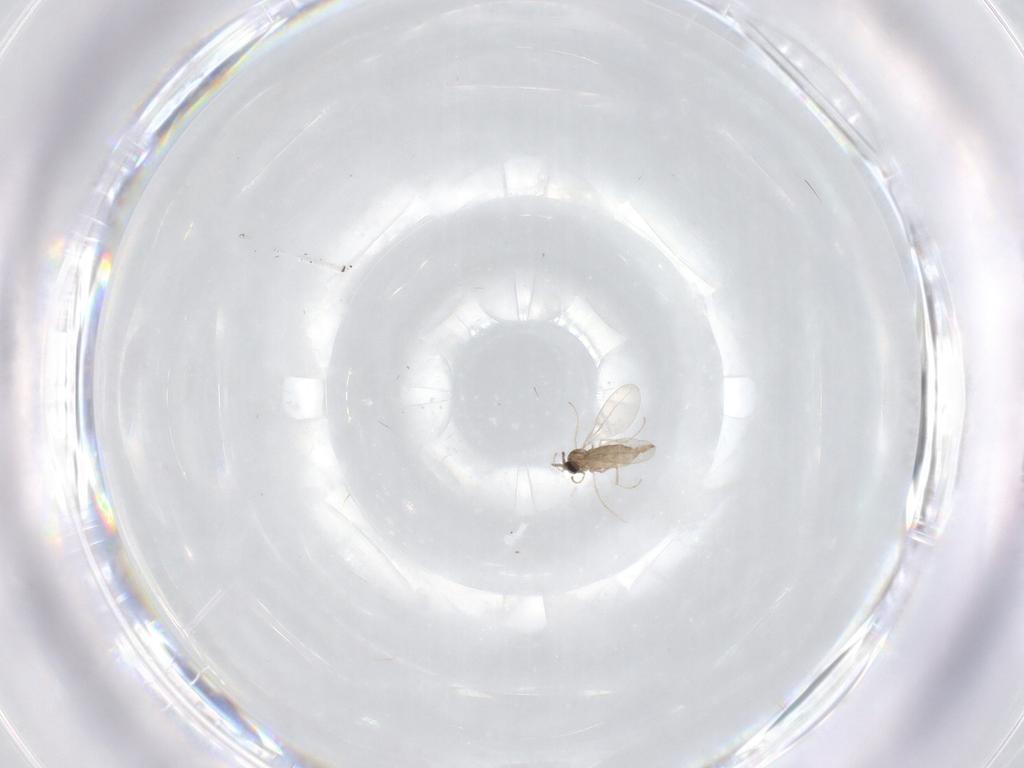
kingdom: Animalia
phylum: Arthropoda
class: Insecta
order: Diptera
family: Cecidomyiidae
